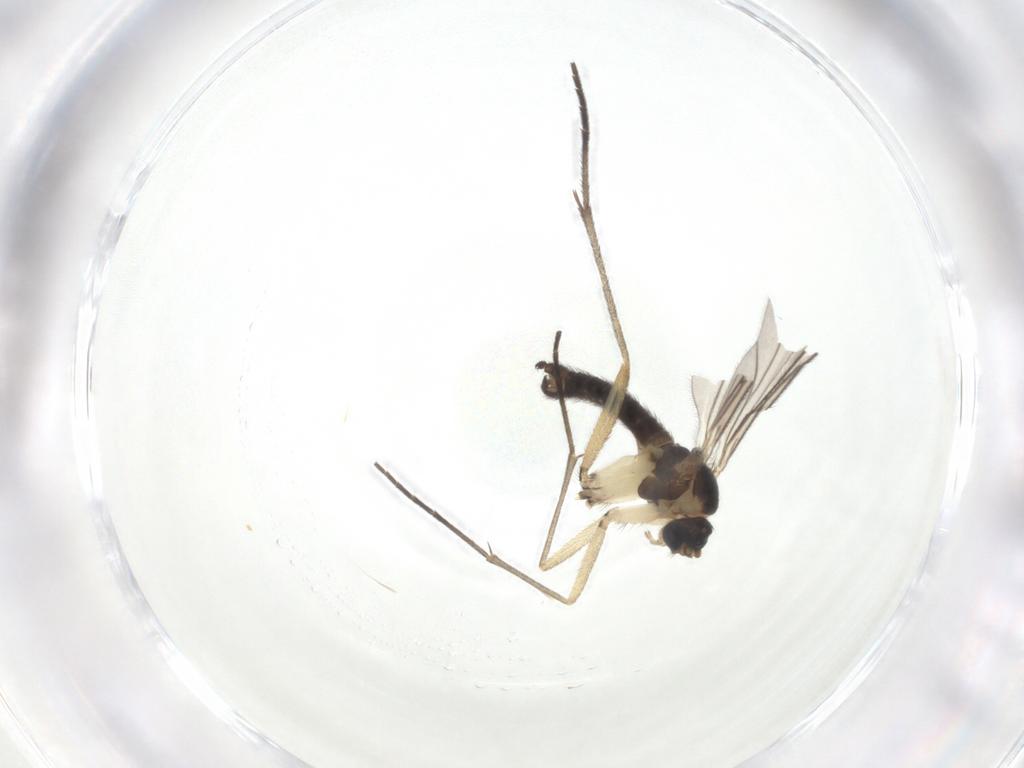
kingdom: Animalia
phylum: Arthropoda
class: Insecta
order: Diptera
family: Sciaridae
